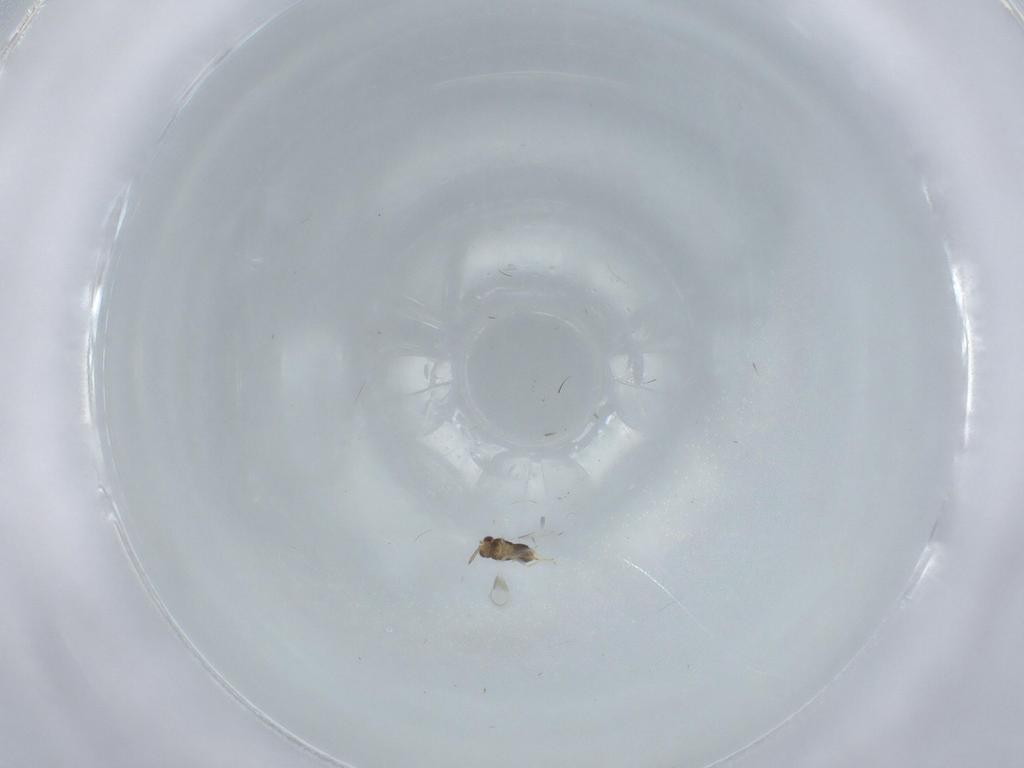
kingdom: Animalia
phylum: Arthropoda
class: Insecta
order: Hymenoptera
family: Aphelinidae
